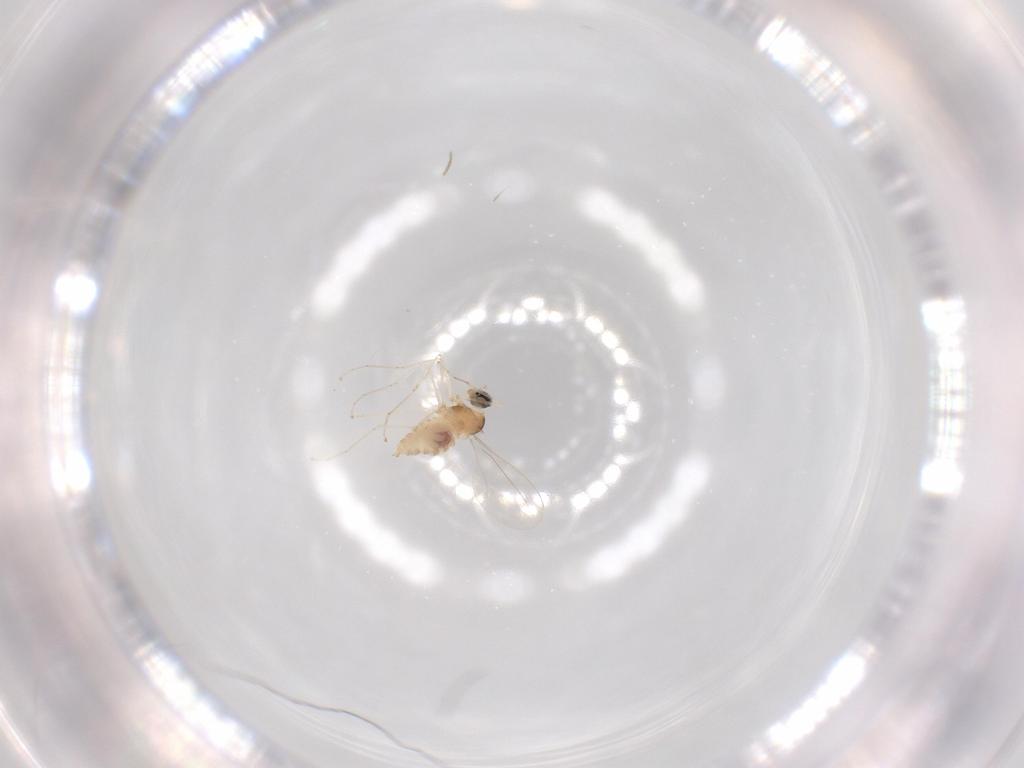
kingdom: Animalia
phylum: Arthropoda
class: Insecta
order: Diptera
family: Cecidomyiidae
